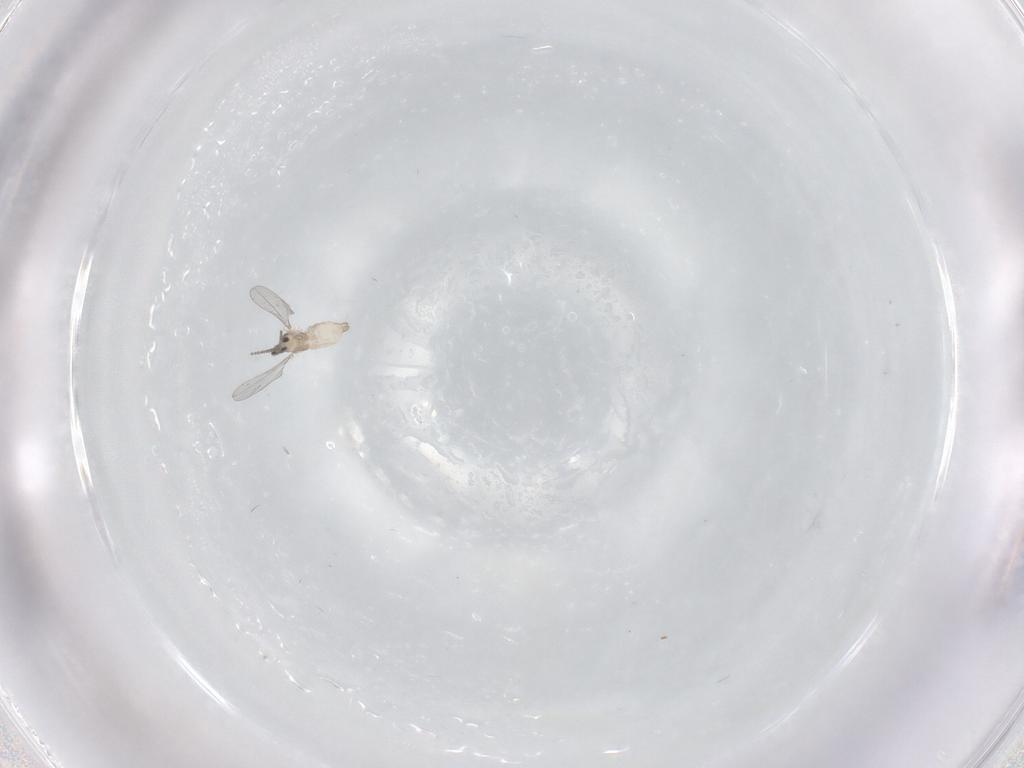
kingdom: Animalia
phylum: Arthropoda
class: Insecta
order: Diptera
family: Cecidomyiidae
